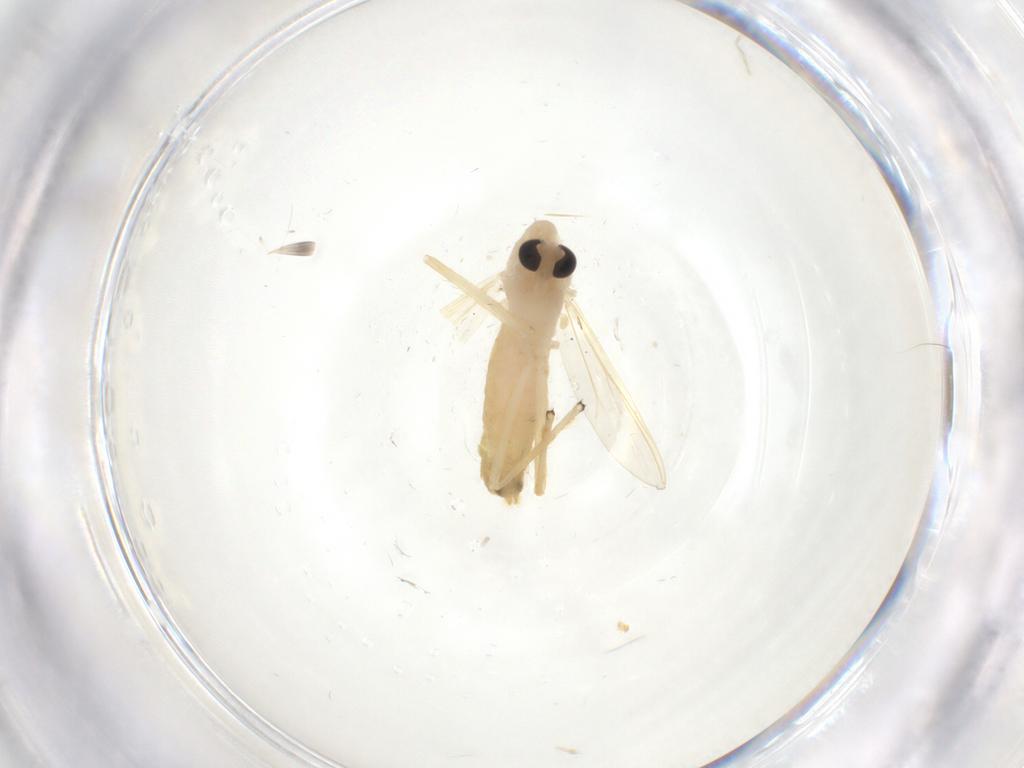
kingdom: Animalia
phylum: Arthropoda
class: Insecta
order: Diptera
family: Chironomidae
